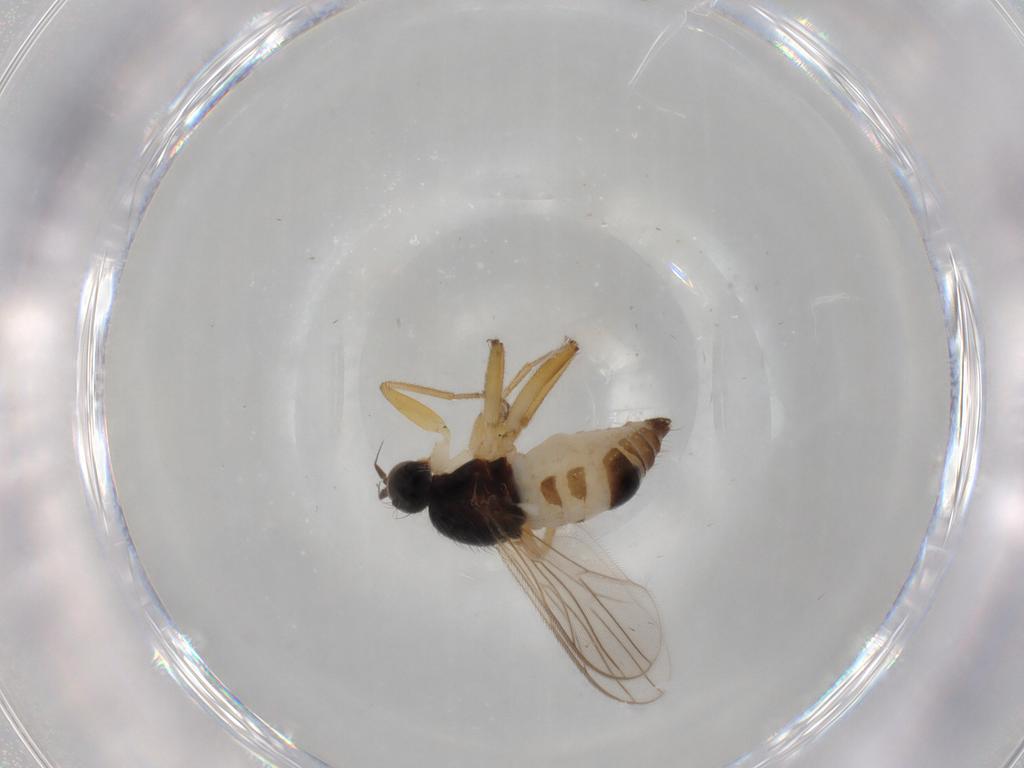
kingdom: Animalia
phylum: Arthropoda
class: Insecta
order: Diptera
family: Hybotidae
